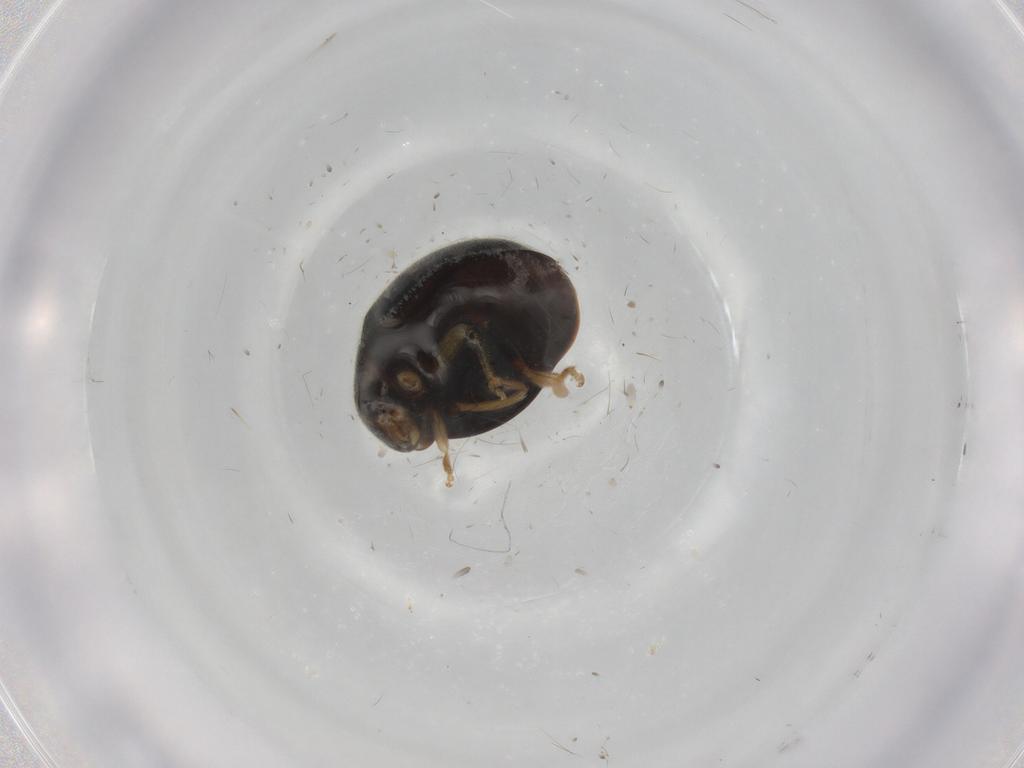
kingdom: Animalia
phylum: Arthropoda
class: Insecta
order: Coleoptera
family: Coccinellidae
